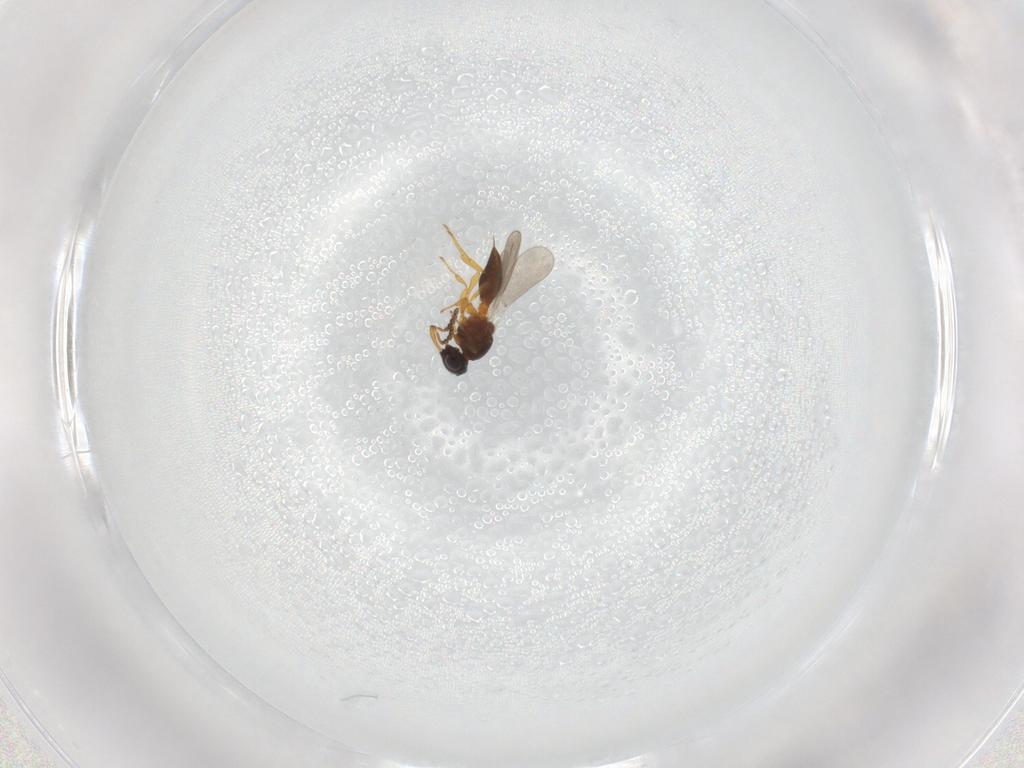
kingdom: Animalia
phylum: Arthropoda
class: Insecta
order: Hymenoptera
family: Platygastridae
